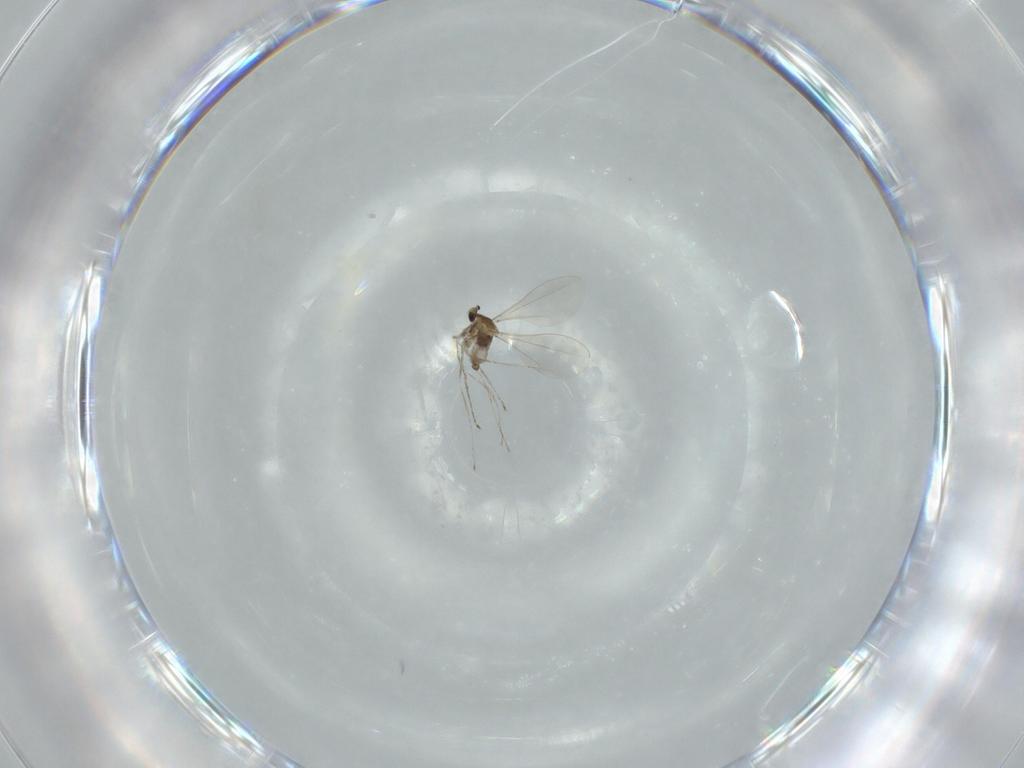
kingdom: Animalia
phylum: Arthropoda
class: Insecta
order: Diptera
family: Cecidomyiidae
